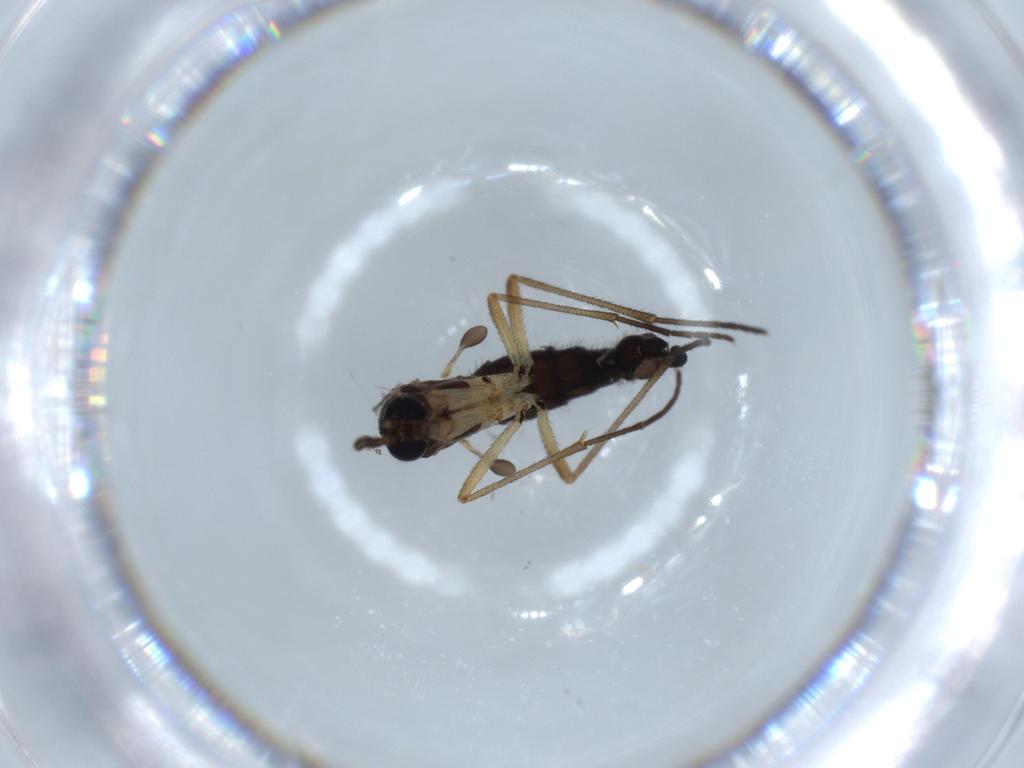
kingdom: Animalia
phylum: Arthropoda
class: Insecta
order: Diptera
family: Sciaridae
